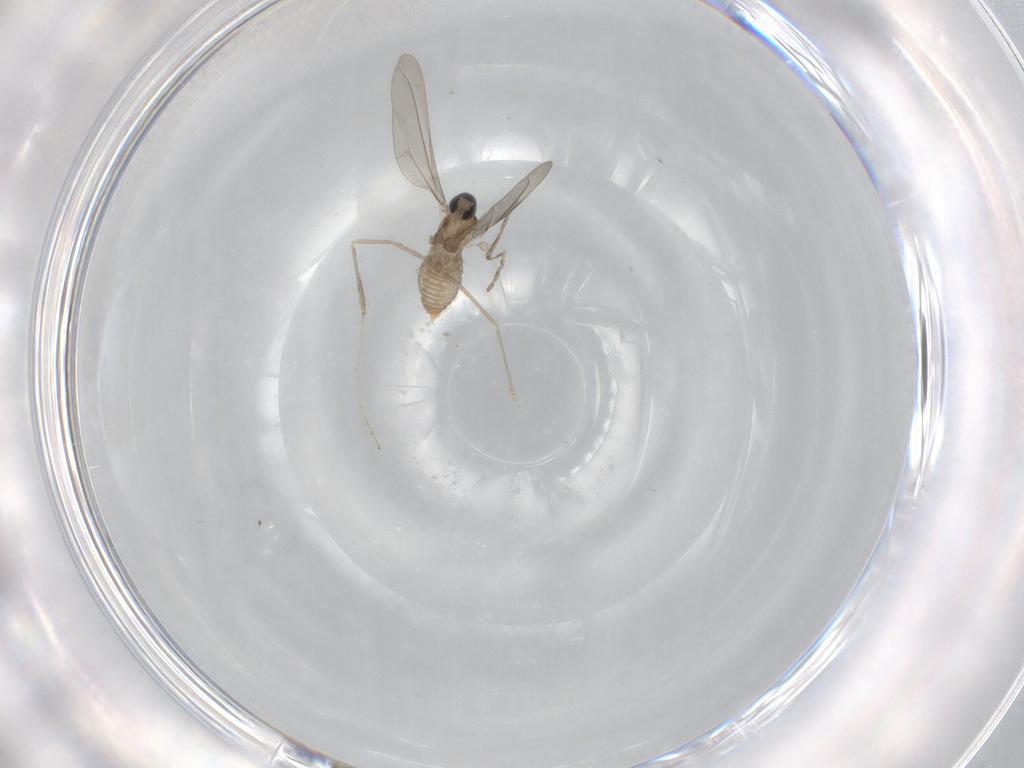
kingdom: Animalia
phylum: Arthropoda
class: Insecta
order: Diptera
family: Cecidomyiidae
